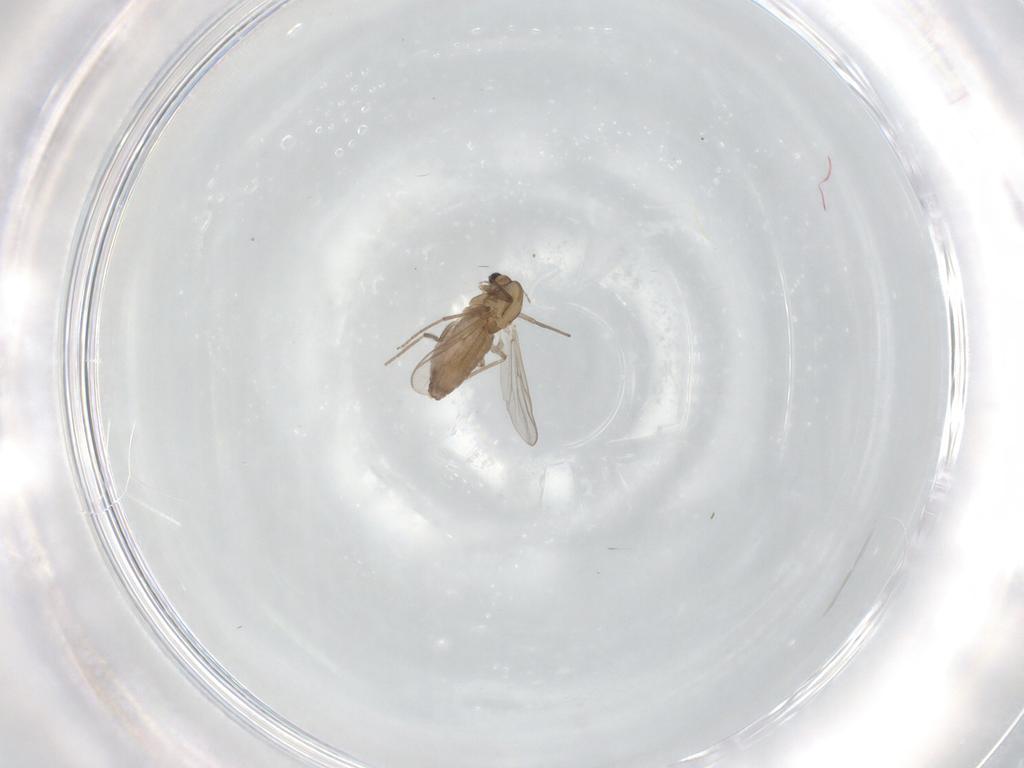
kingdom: Animalia
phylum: Arthropoda
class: Insecta
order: Diptera
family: Chironomidae
